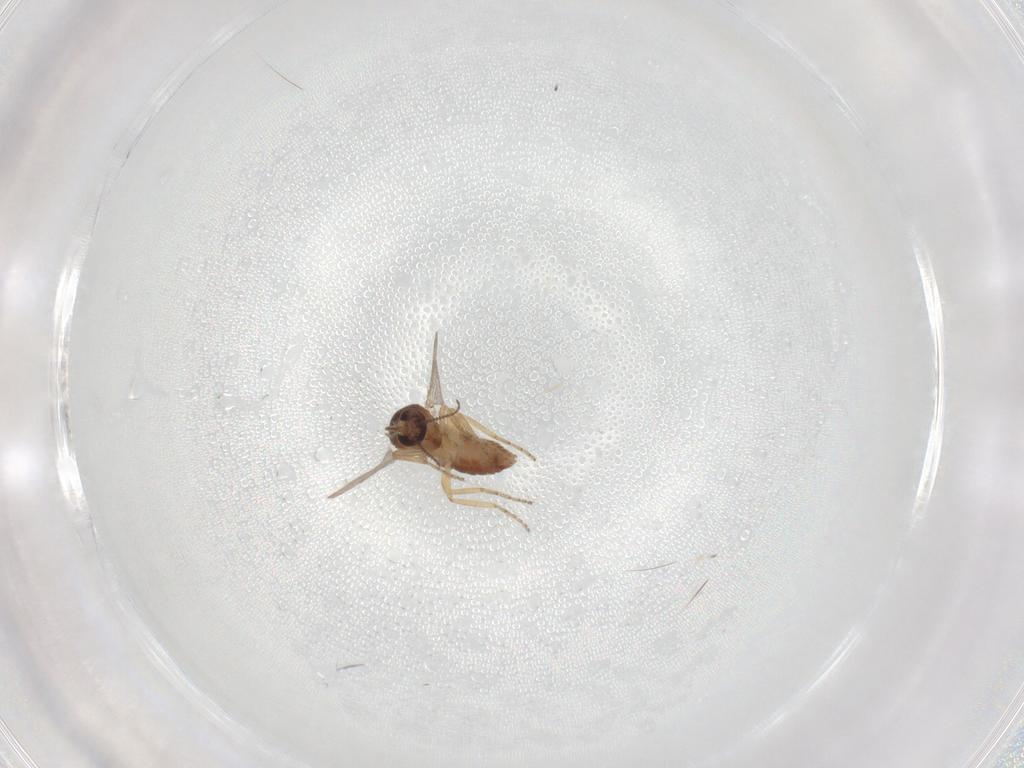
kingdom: Animalia
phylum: Arthropoda
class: Insecta
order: Diptera
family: Ceratopogonidae
